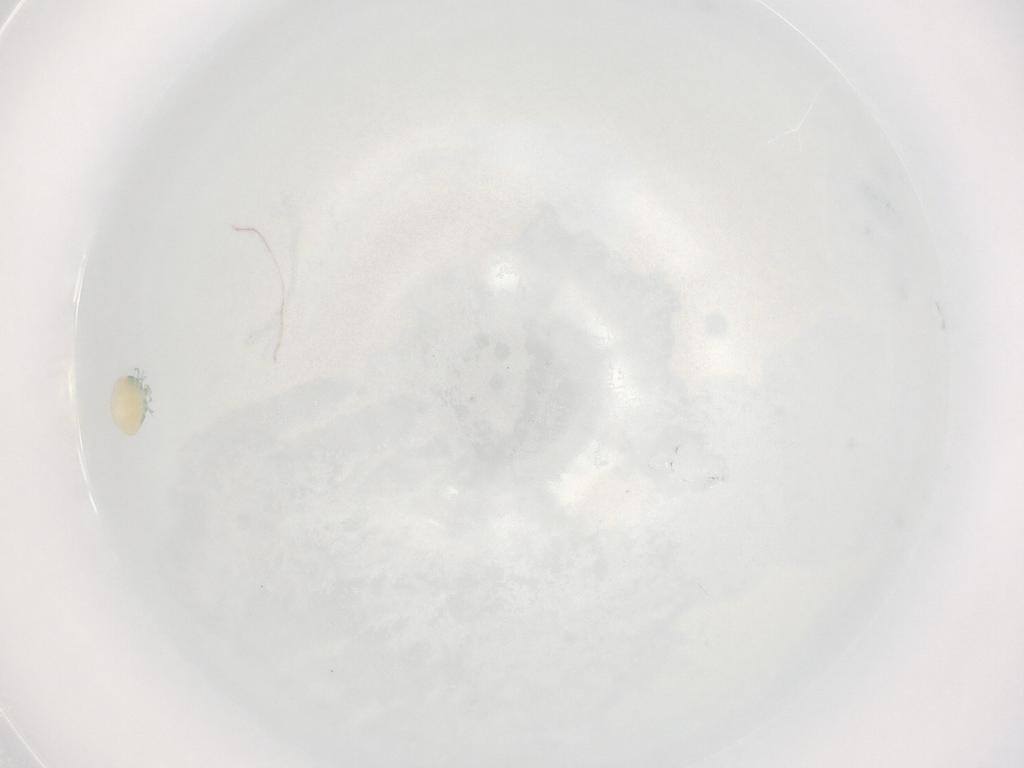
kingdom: Animalia
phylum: Arthropoda
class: Arachnida
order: Trombidiformes
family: Arrenuridae
